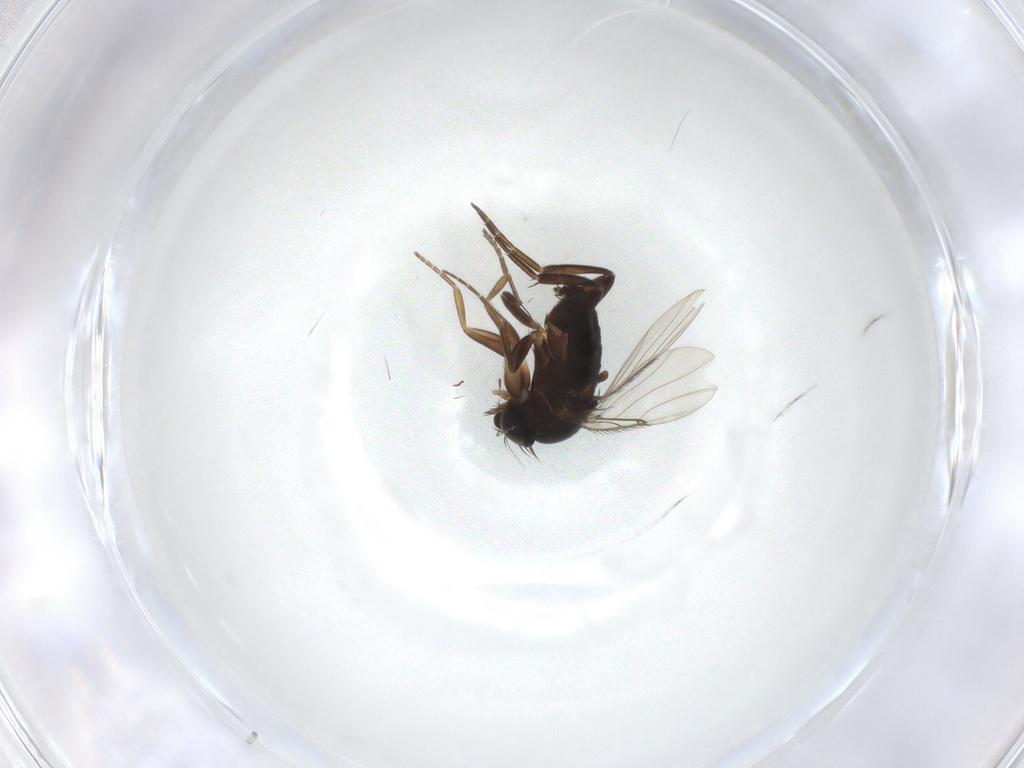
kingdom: Animalia
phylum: Arthropoda
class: Insecta
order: Diptera
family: Phoridae
